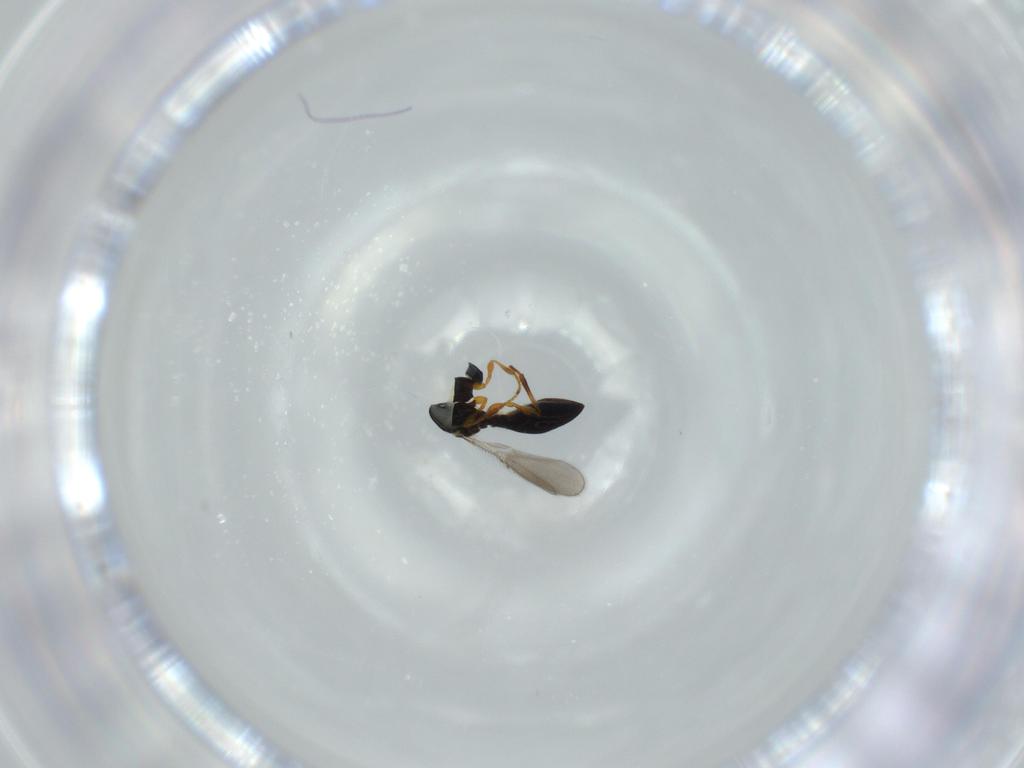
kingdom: Animalia
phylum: Arthropoda
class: Insecta
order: Hymenoptera
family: Platygastridae
